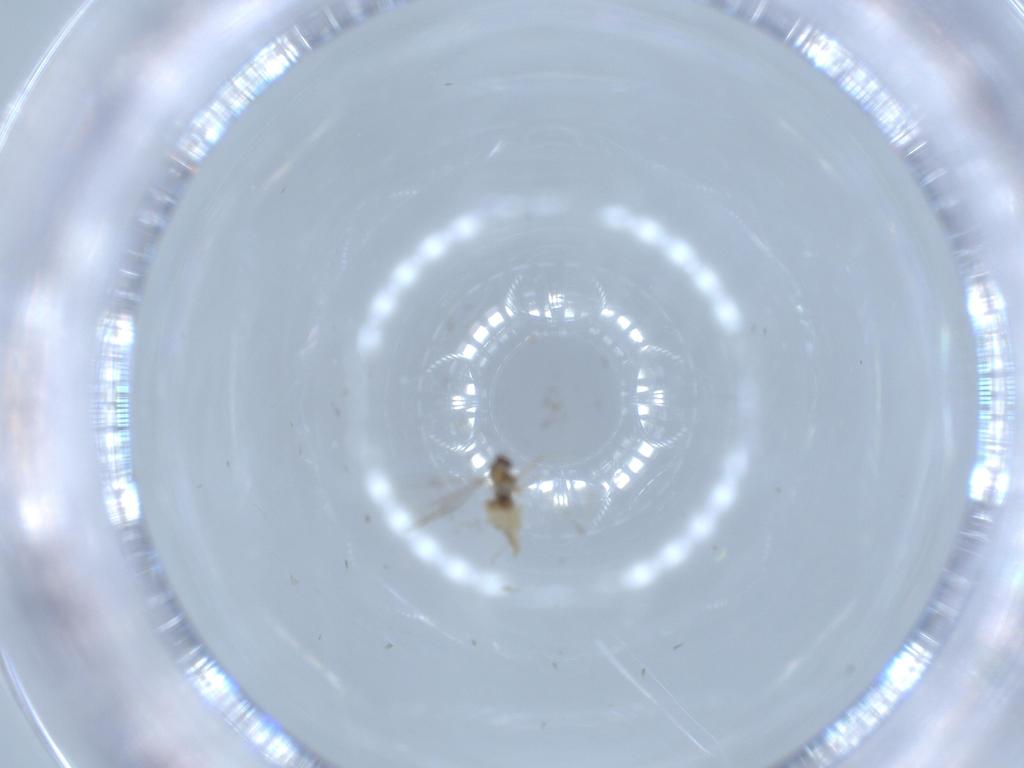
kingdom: Animalia
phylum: Arthropoda
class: Insecta
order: Diptera
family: Cecidomyiidae
